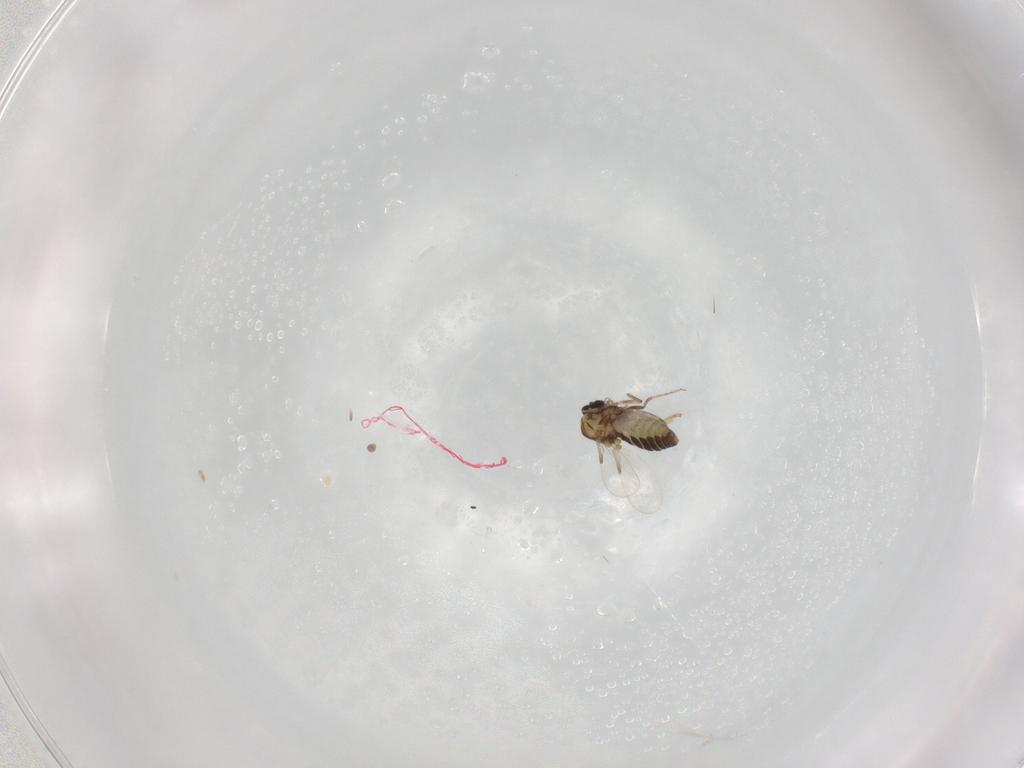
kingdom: Animalia
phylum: Arthropoda
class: Insecta
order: Diptera
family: Ceratopogonidae
